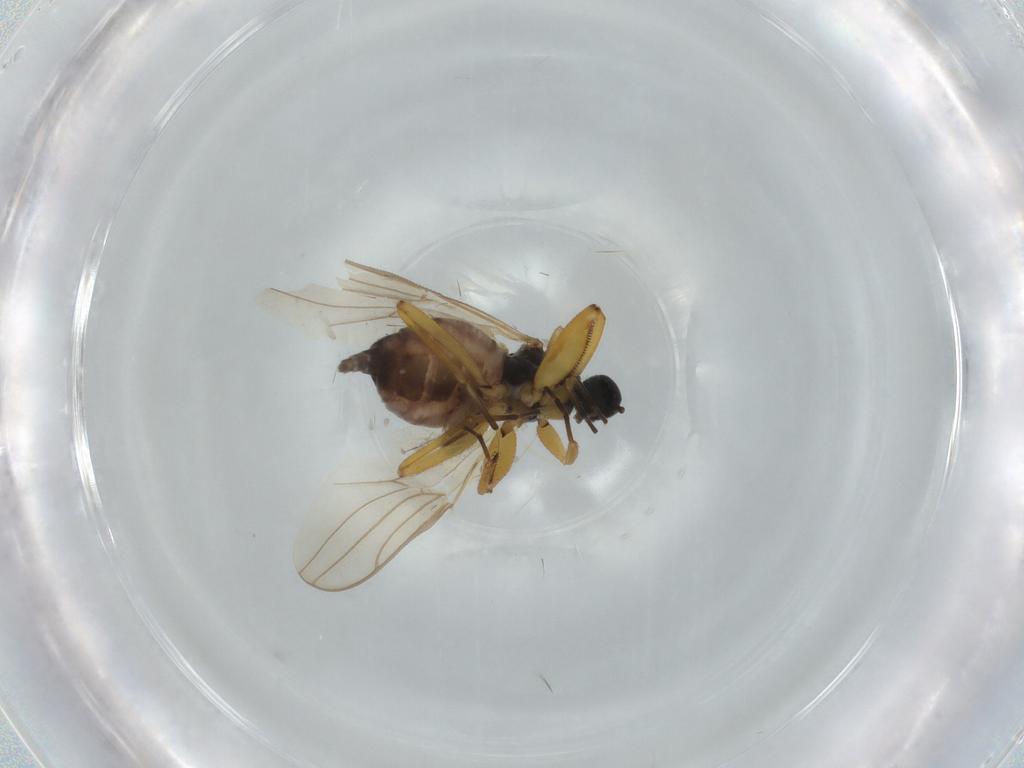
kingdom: Animalia
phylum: Arthropoda
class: Insecta
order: Diptera
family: Hybotidae
